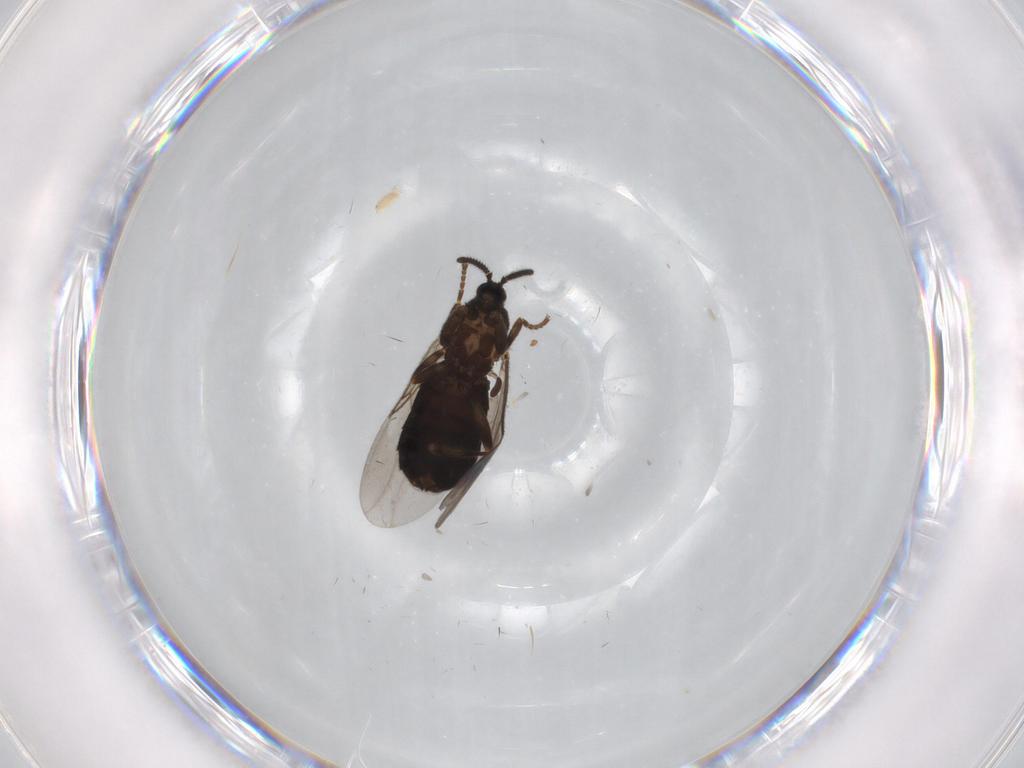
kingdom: Animalia
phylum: Arthropoda
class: Insecta
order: Diptera
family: Scatopsidae
